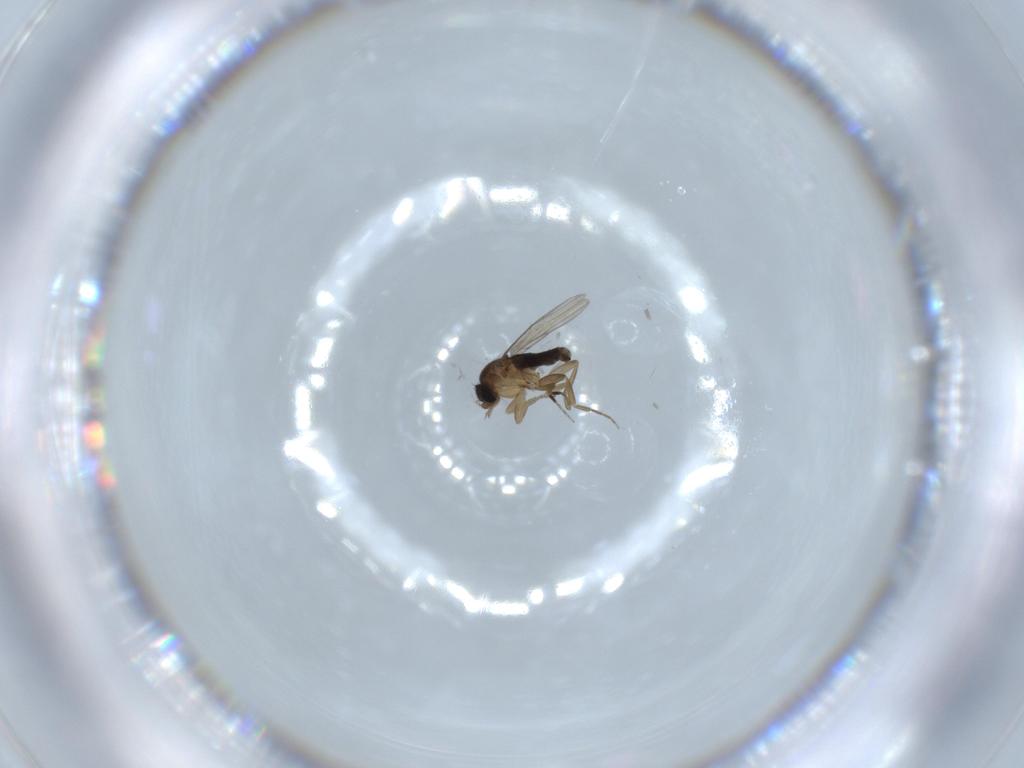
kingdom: Animalia
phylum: Arthropoda
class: Insecta
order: Diptera
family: Phoridae
